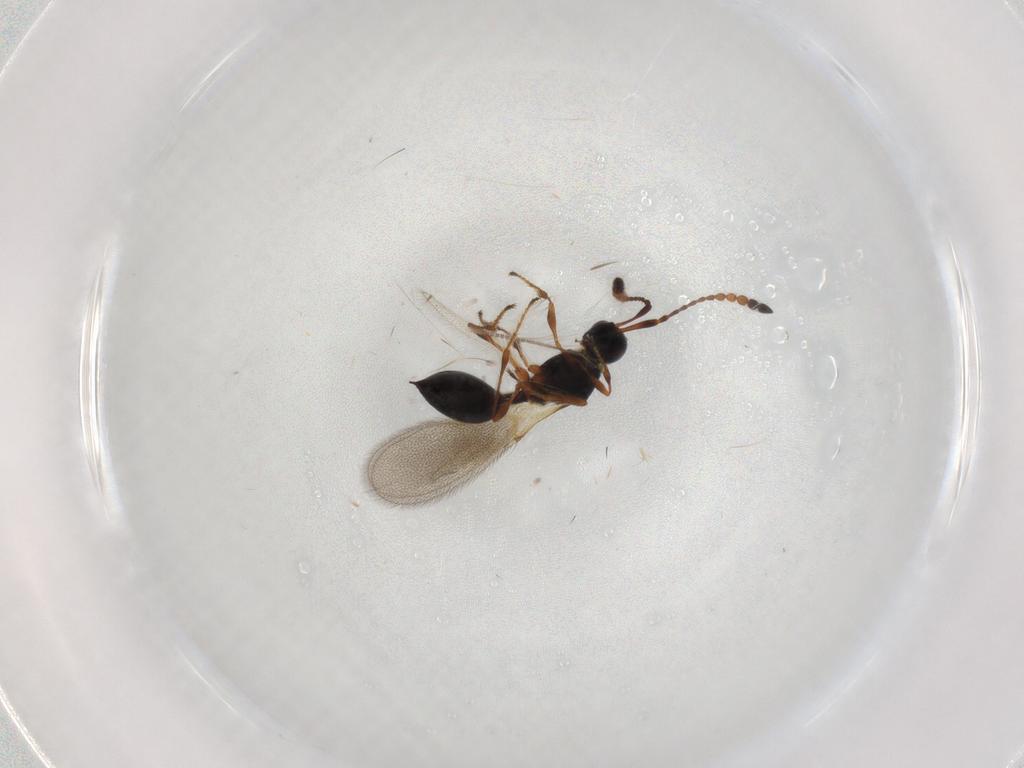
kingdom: Animalia
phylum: Arthropoda
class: Insecta
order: Hymenoptera
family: Diapriidae
